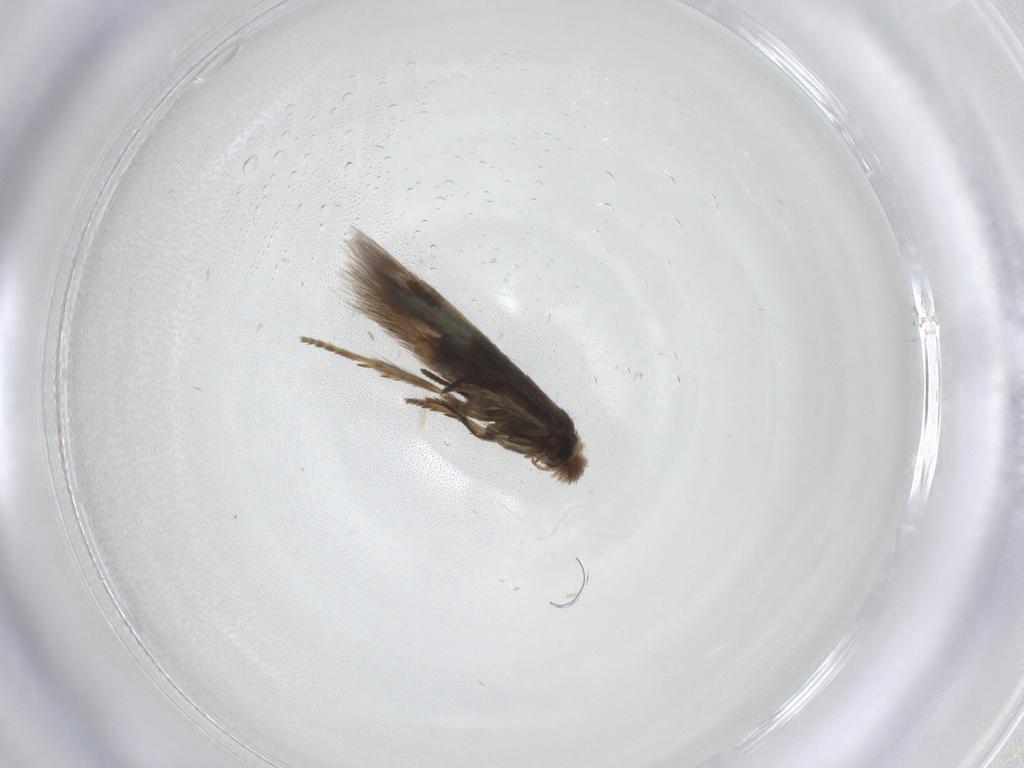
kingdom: Animalia
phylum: Arthropoda
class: Insecta
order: Lepidoptera
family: Nepticulidae
